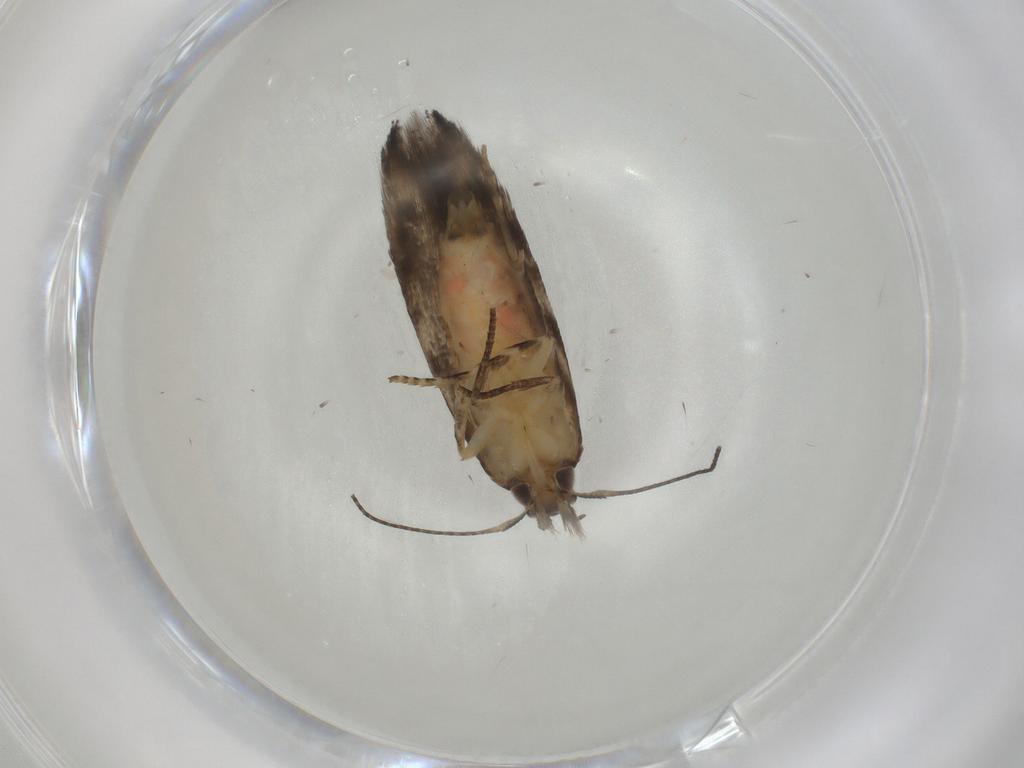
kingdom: Animalia
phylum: Arthropoda
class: Insecta
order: Lepidoptera
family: Elachistidae
